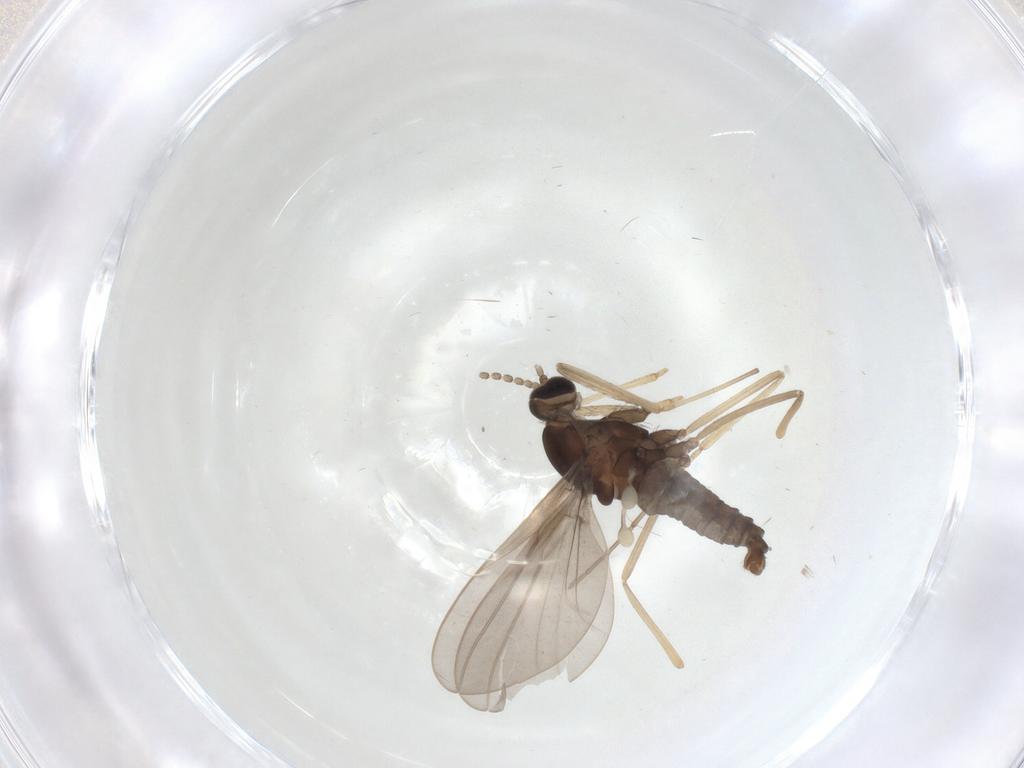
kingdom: Animalia
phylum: Arthropoda
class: Insecta
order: Diptera
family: Cecidomyiidae
